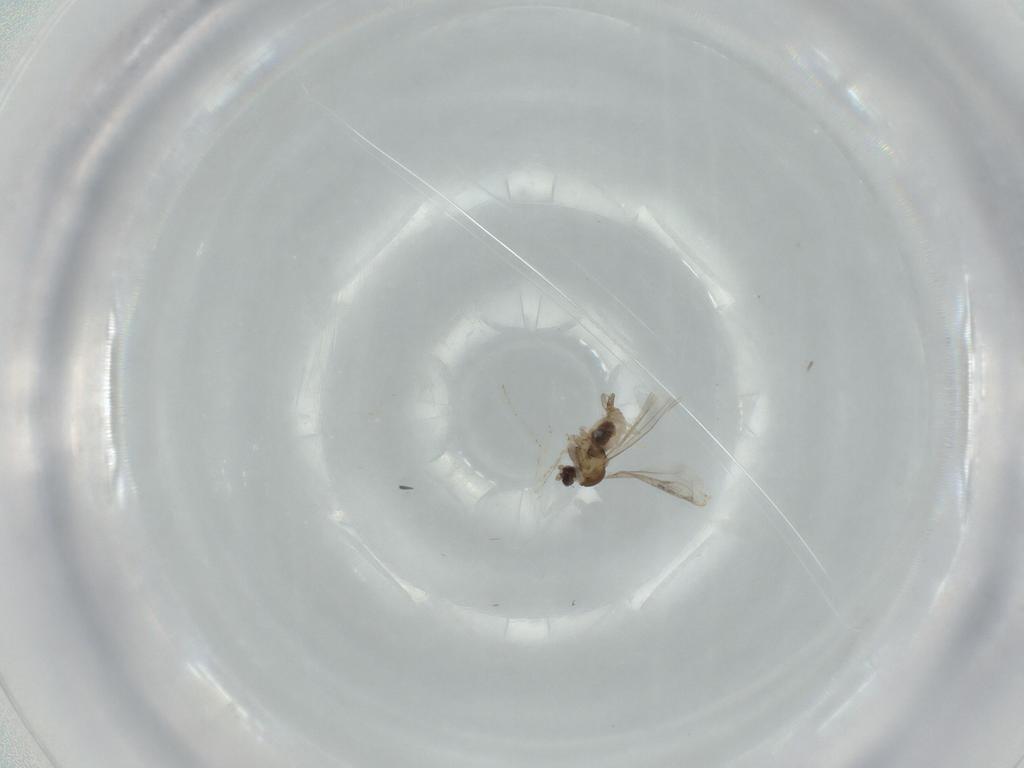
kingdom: Animalia
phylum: Arthropoda
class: Insecta
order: Diptera
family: Cecidomyiidae
